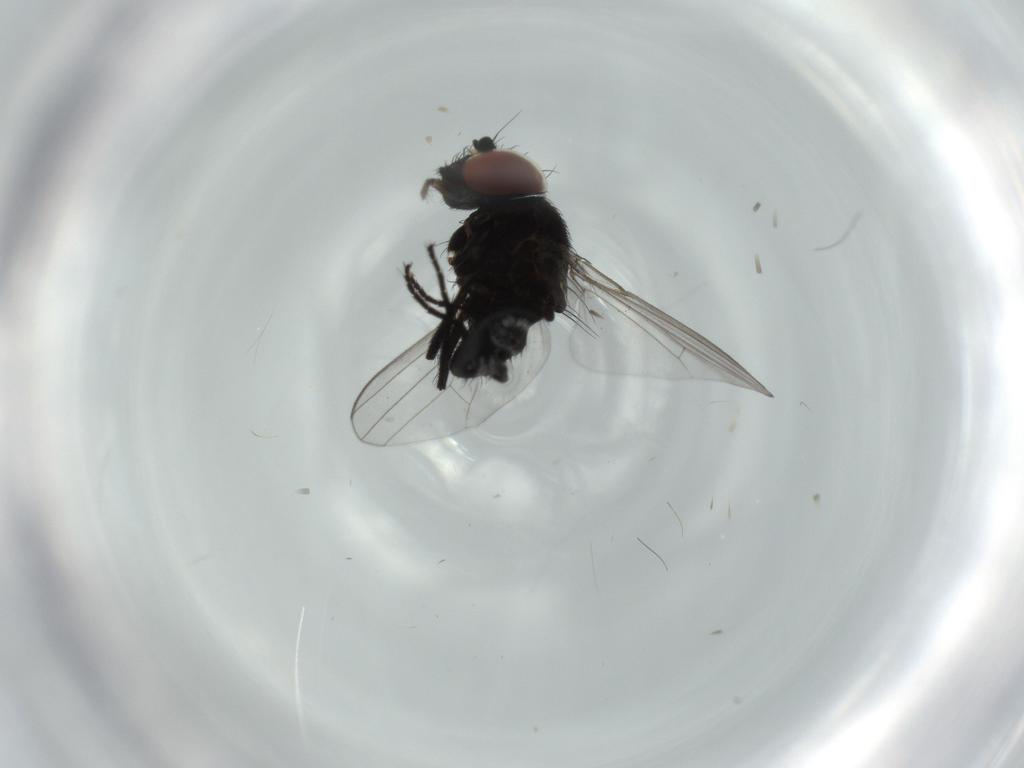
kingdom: Animalia
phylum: Arthropoda
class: Insecta
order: Diptera
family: Milichiidae
